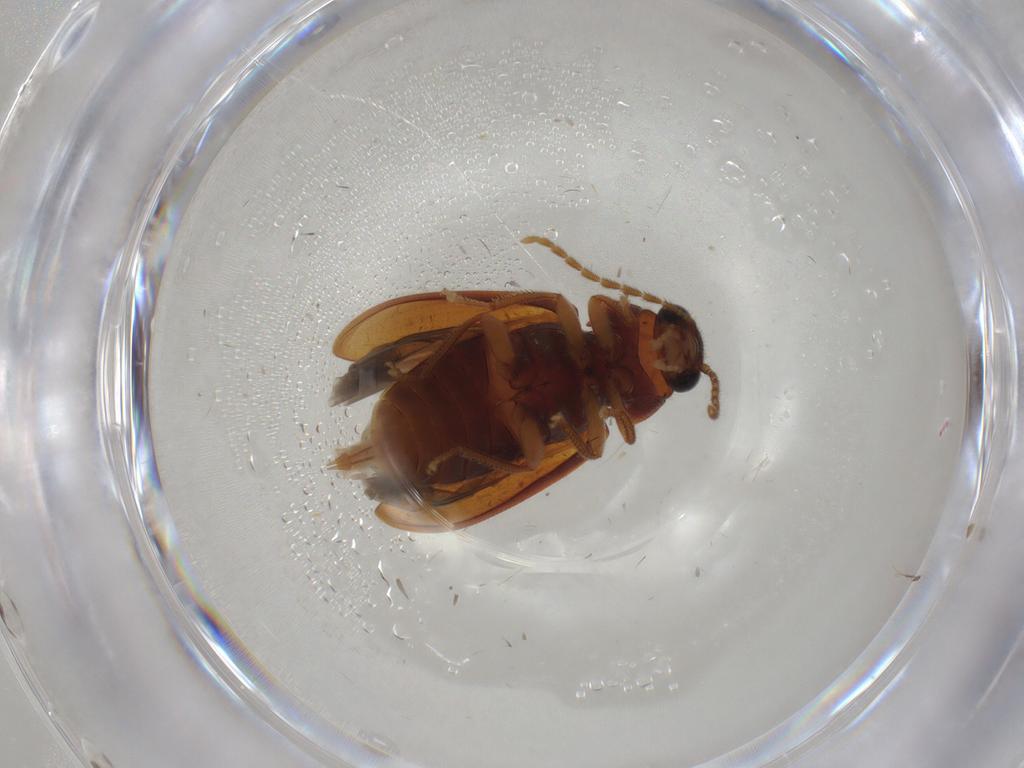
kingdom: Animalia
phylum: Arthropoda
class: Insecta
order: Coleoptera
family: Ptilodactylidae
